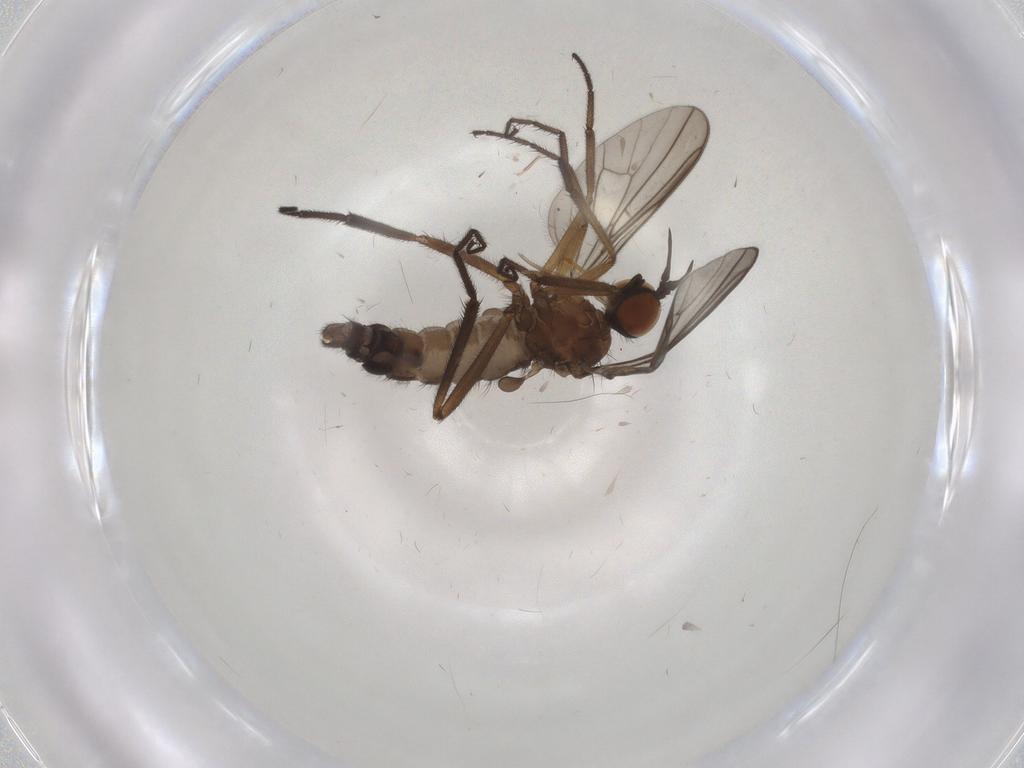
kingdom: Animalia
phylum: Arthropoda
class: Insecta
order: Diptera
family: Empididae
